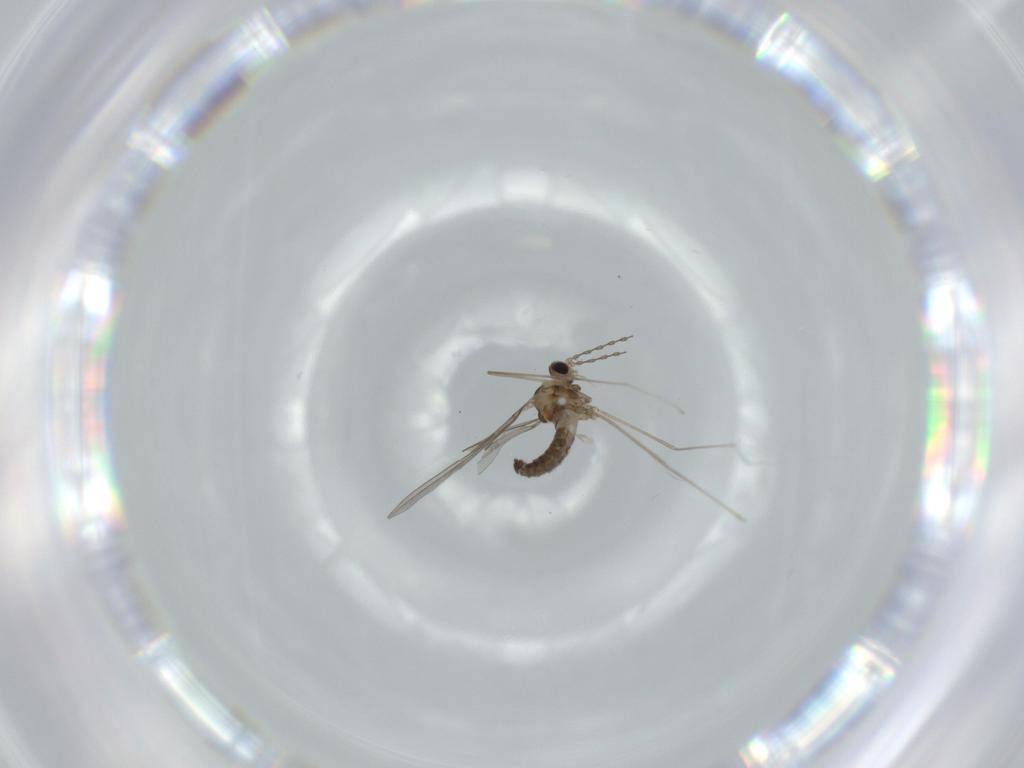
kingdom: Animalia
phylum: Arthropoda
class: Insecta
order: Diptera
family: Cecidomyiidae
